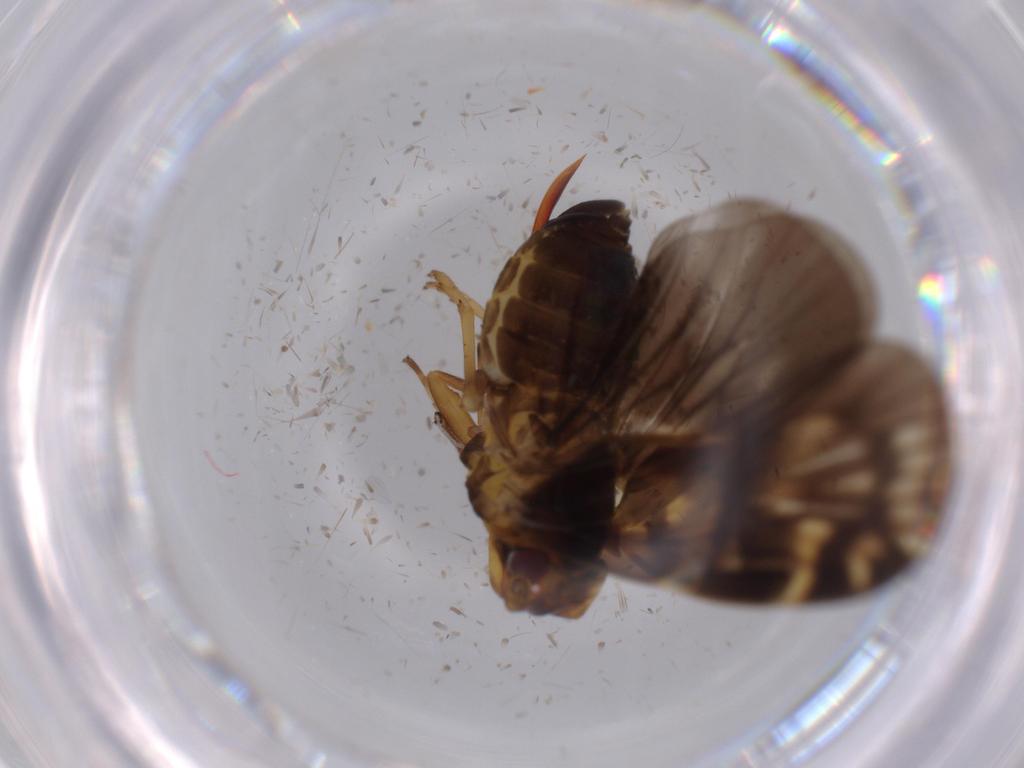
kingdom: Animalia
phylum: Arthropoda
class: Insecta
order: Hemiptera
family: Cixiidae
